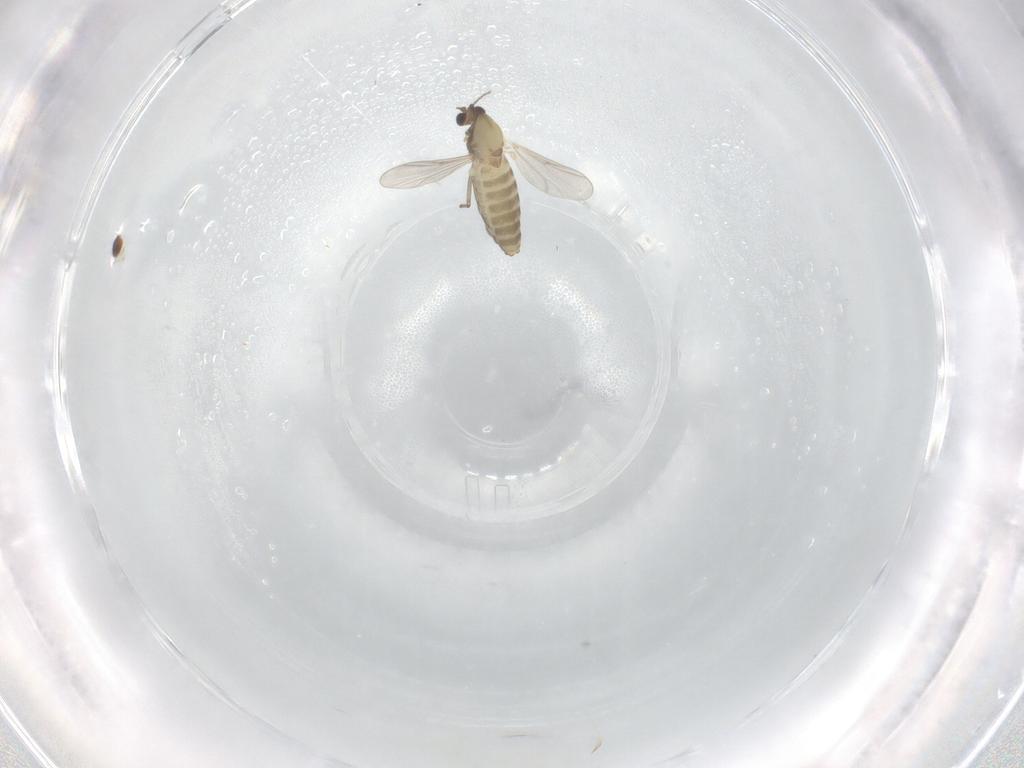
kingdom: Animalia
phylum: Arthropoda
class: Insecta
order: Diptera
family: Chironomidae
